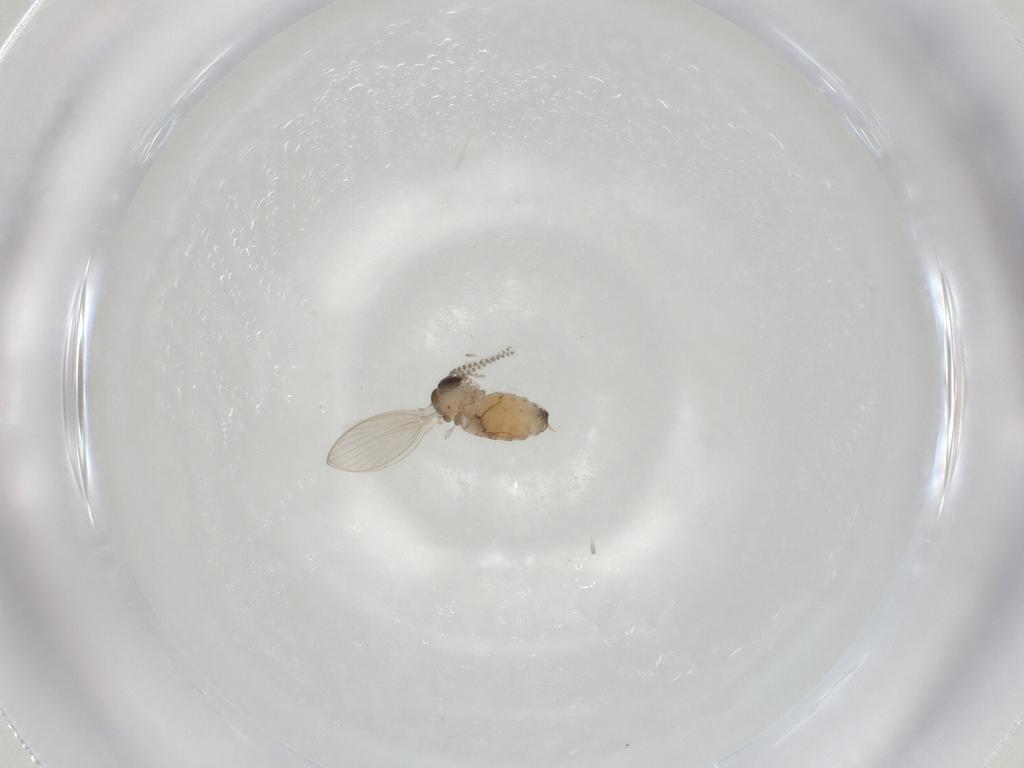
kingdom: Animalia
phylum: Arthropoda
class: Insecta
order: Diptera
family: Psychodidae
